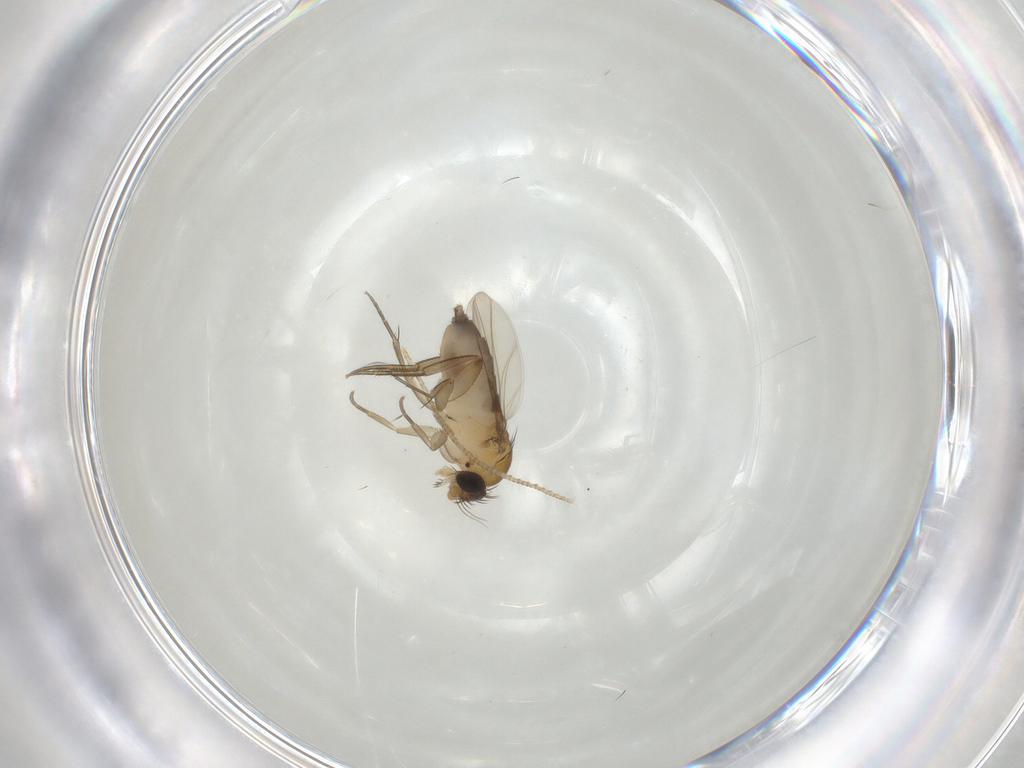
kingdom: Animalia
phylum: Arthropoda
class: Insecta
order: Diptera
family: Phoridae
